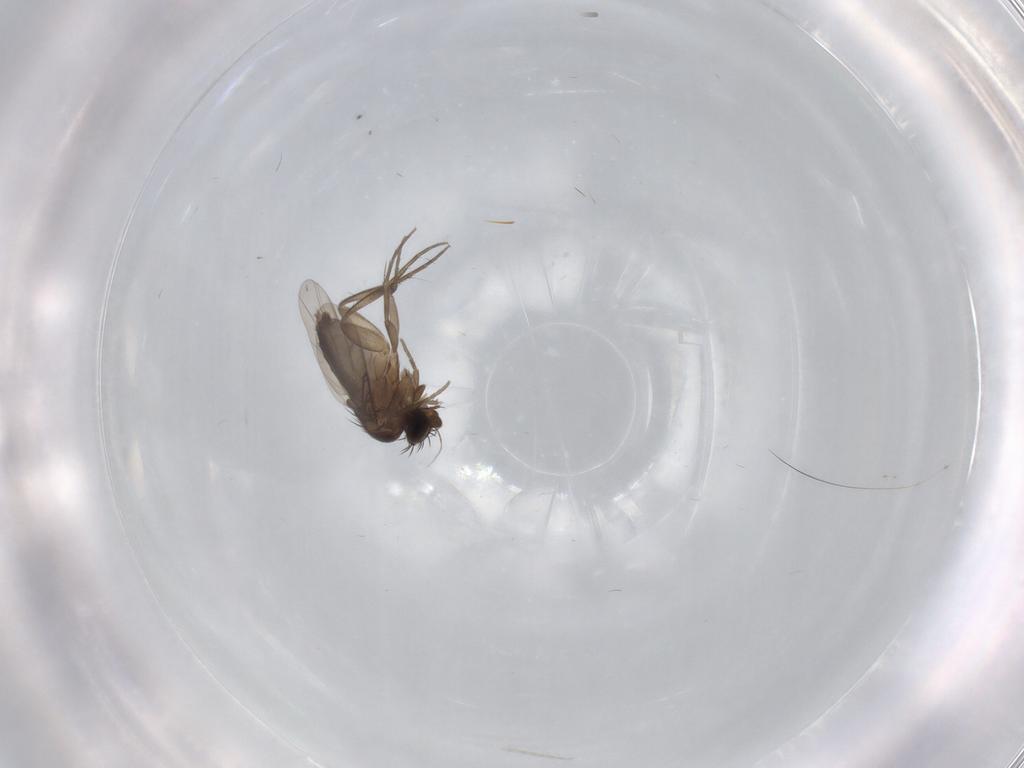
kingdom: Animalia
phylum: Arthropoda
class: Insecta
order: Diptera
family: Phoridae
